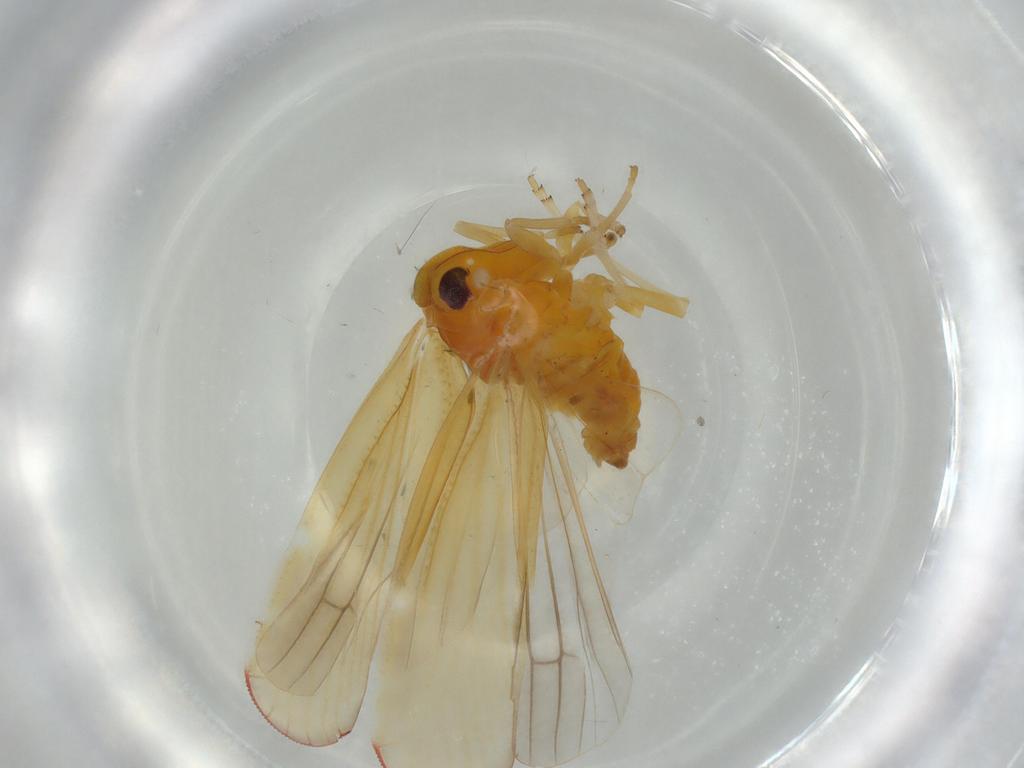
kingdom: Animalia
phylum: Arthropoda
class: Insecta
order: Hemiptera
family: Derbidae
